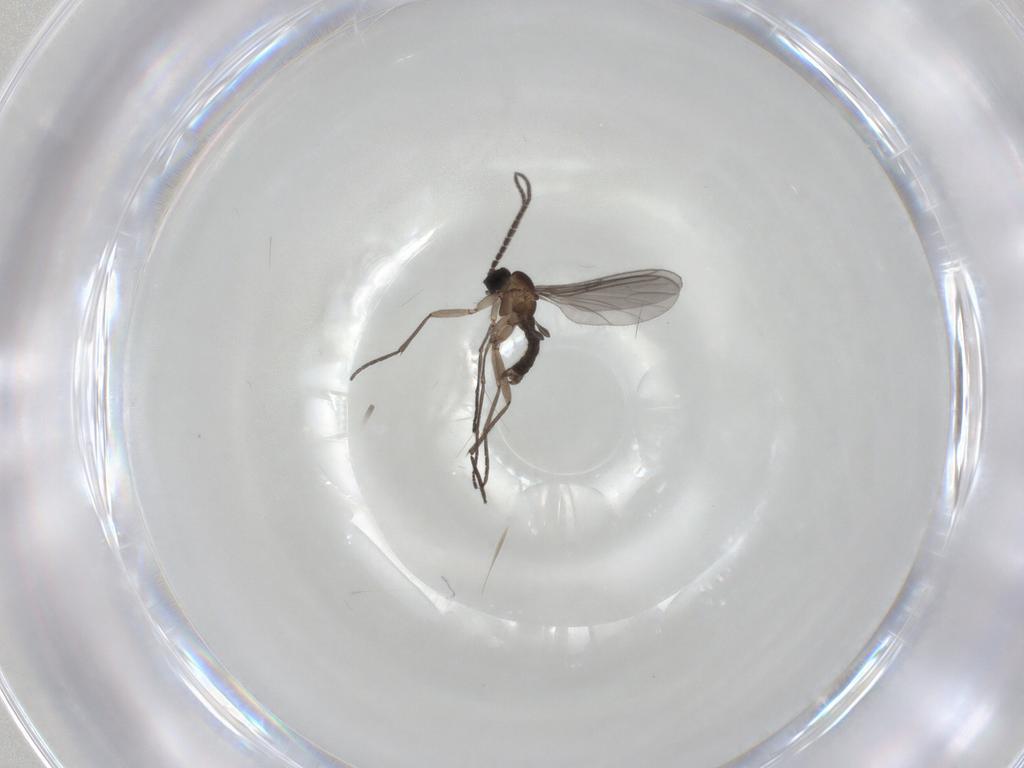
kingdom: Animalia
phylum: Arthropoda
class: Insecta
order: Diptera
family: Sciaridae
